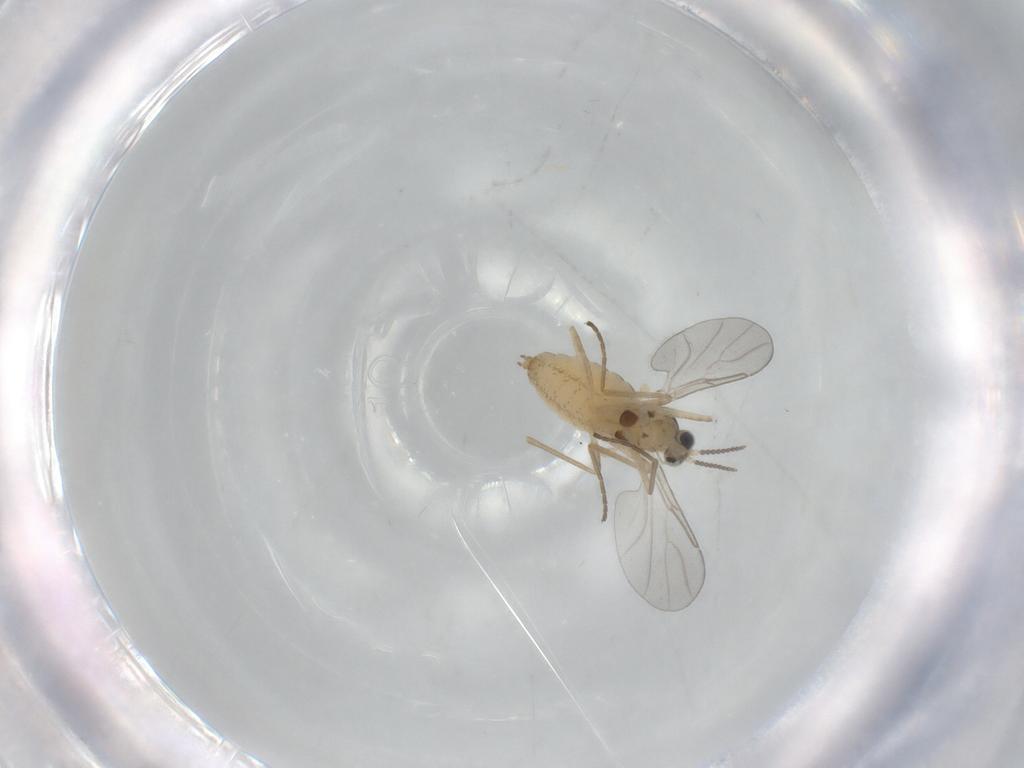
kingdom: Animalia
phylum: Arthropoda
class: Insecta
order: Diptera
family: Cecidomyiidae
